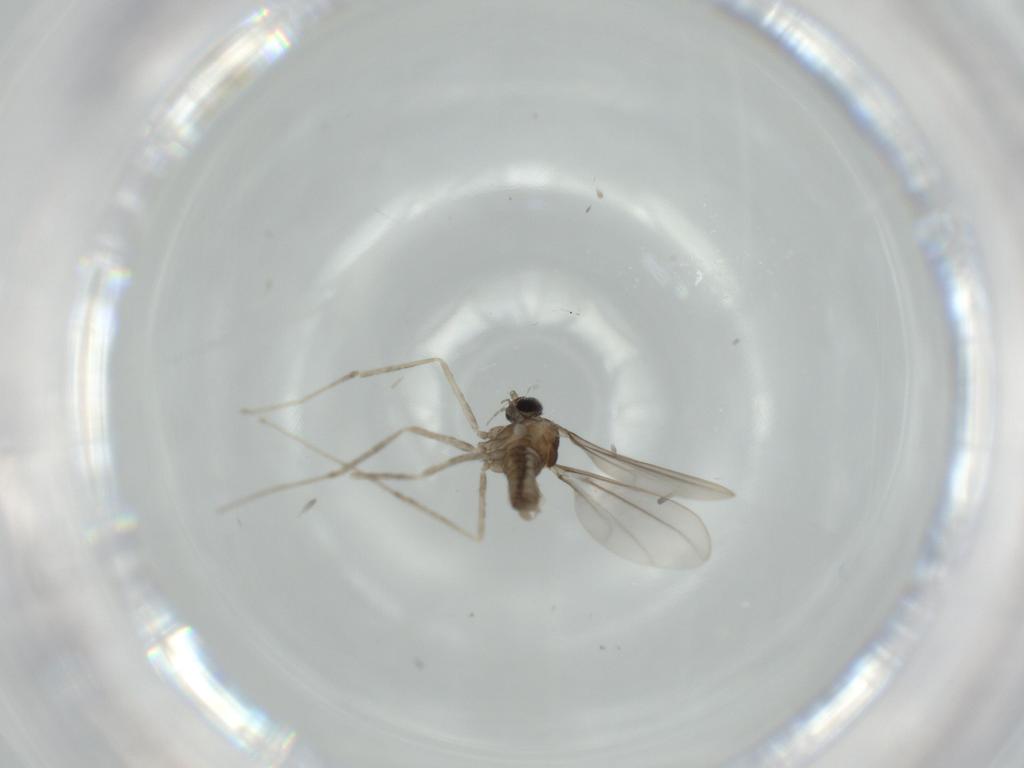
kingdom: Animalia
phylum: Arthropoda
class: Insecta
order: Diptera
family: Cecidomyiidae
